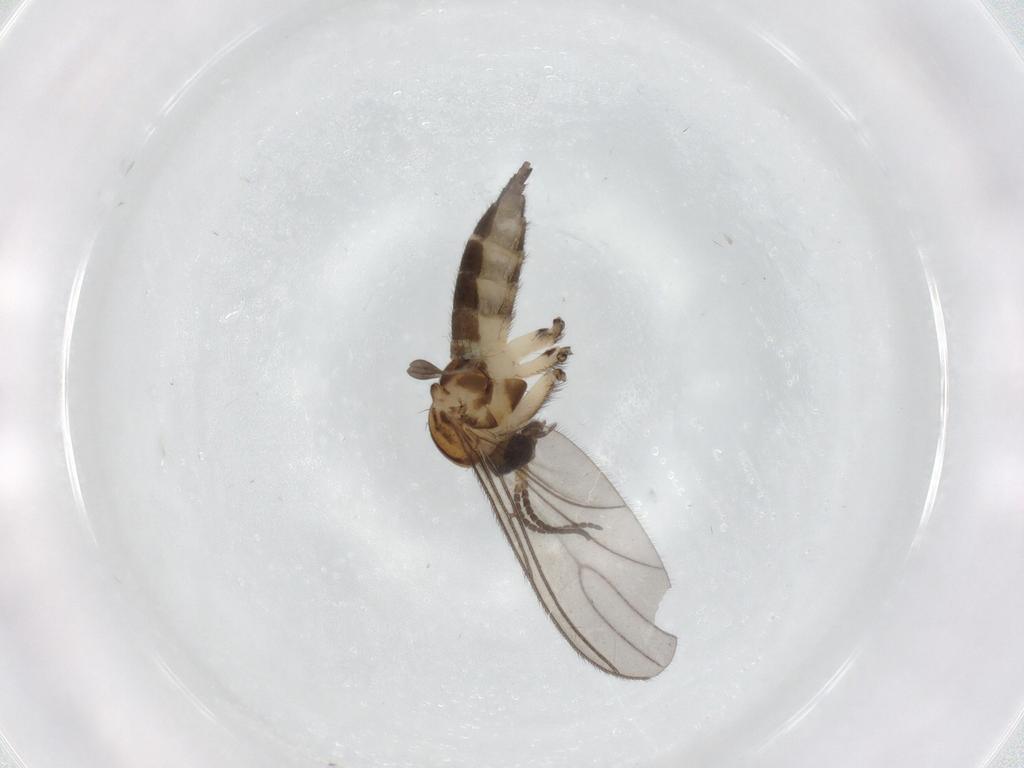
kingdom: Animalia
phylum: Arthropoda
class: Insecta
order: Diptera
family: Sciaridae
